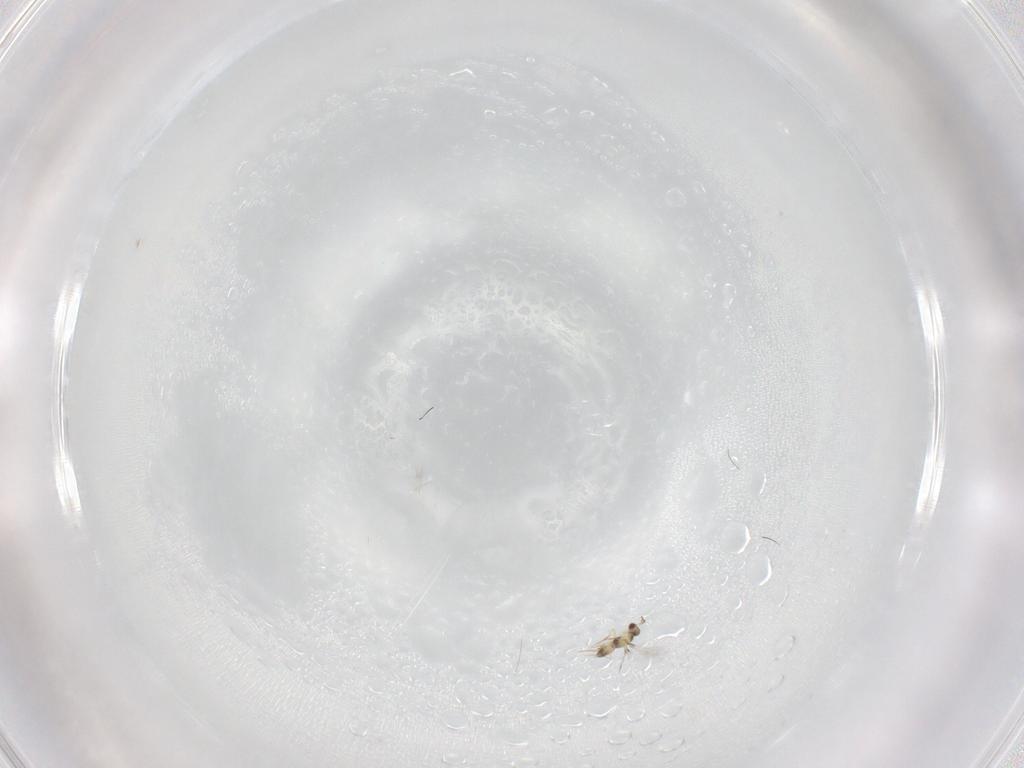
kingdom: Animalia
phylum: Arthropoda
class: Insecta
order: Hymenoptera
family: Mymaridae
